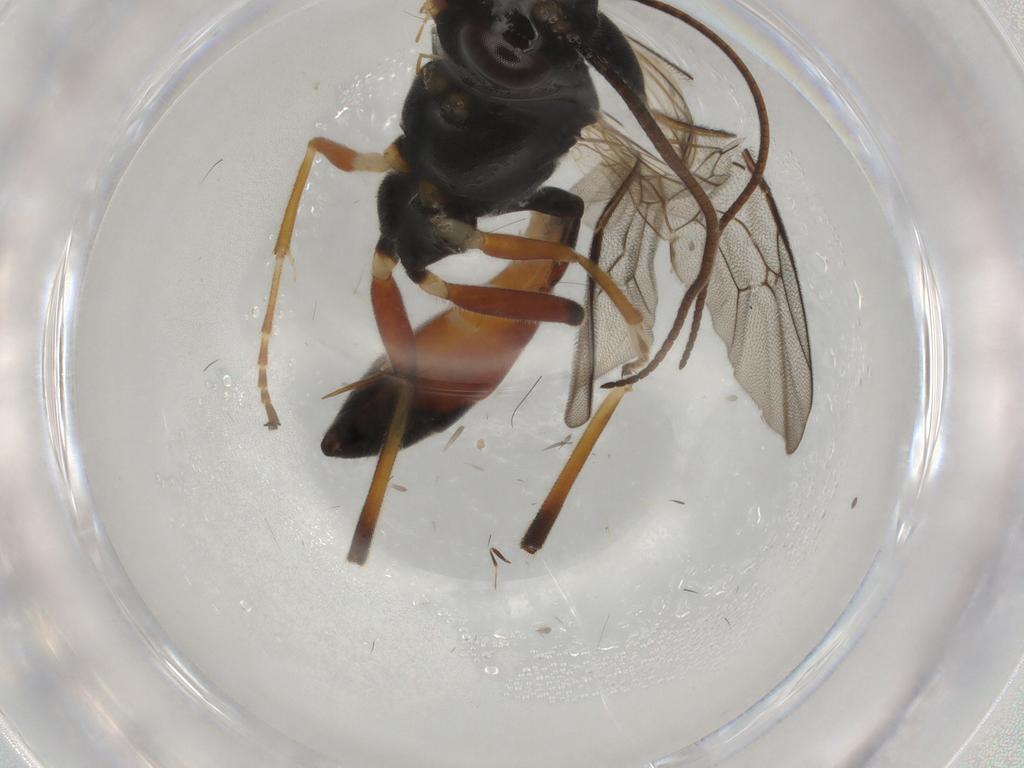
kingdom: Animalia
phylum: Arthropoda
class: Insecta
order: Hymenoptera
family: Ichneumonidae
